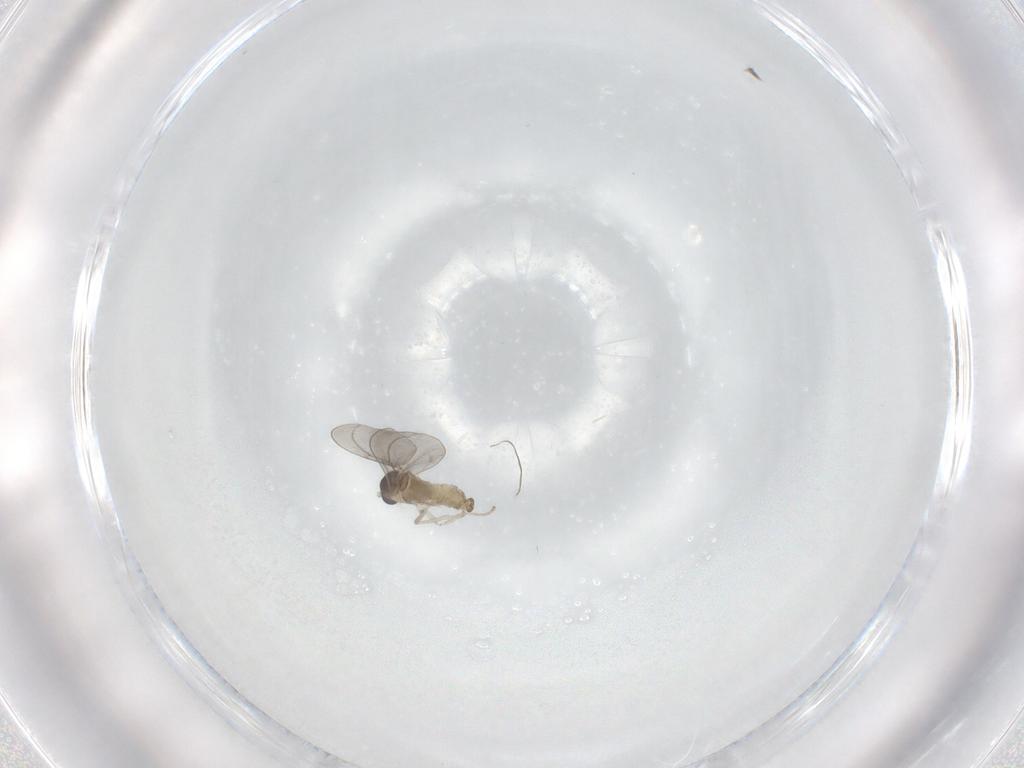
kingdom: Animalia
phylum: Arthropoda
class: Insecta
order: Diptera
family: Cecidomyiidae
